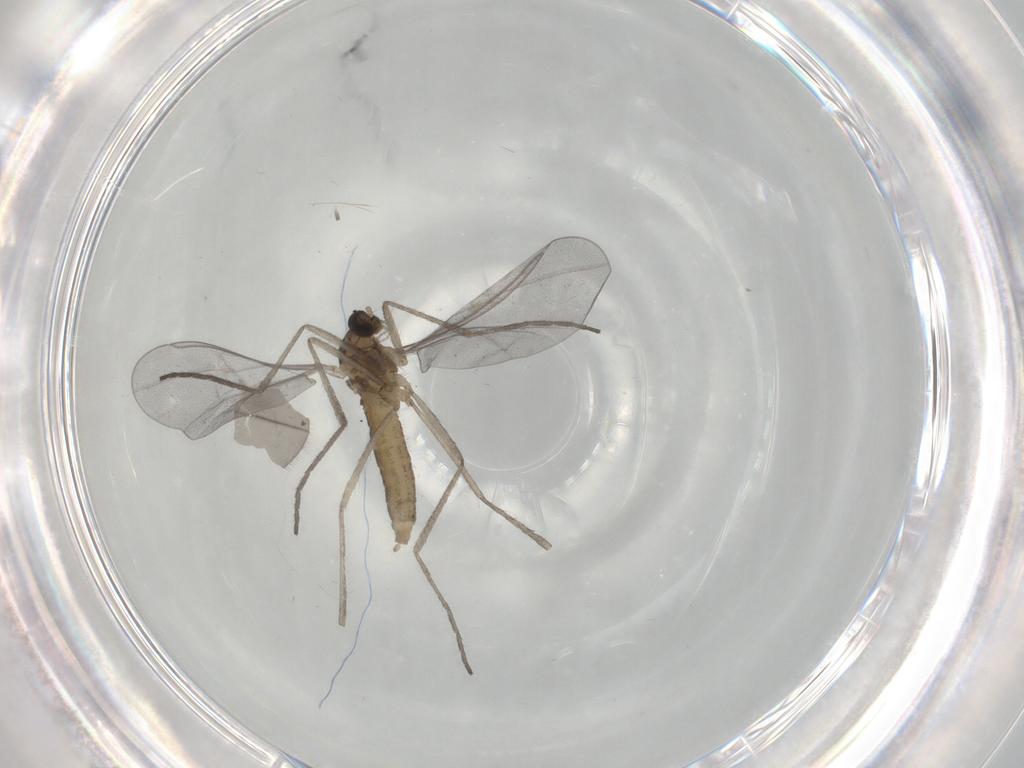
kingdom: Animalia
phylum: Arthropoda
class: Insecta
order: Diptera
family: Cecidomyiidae
